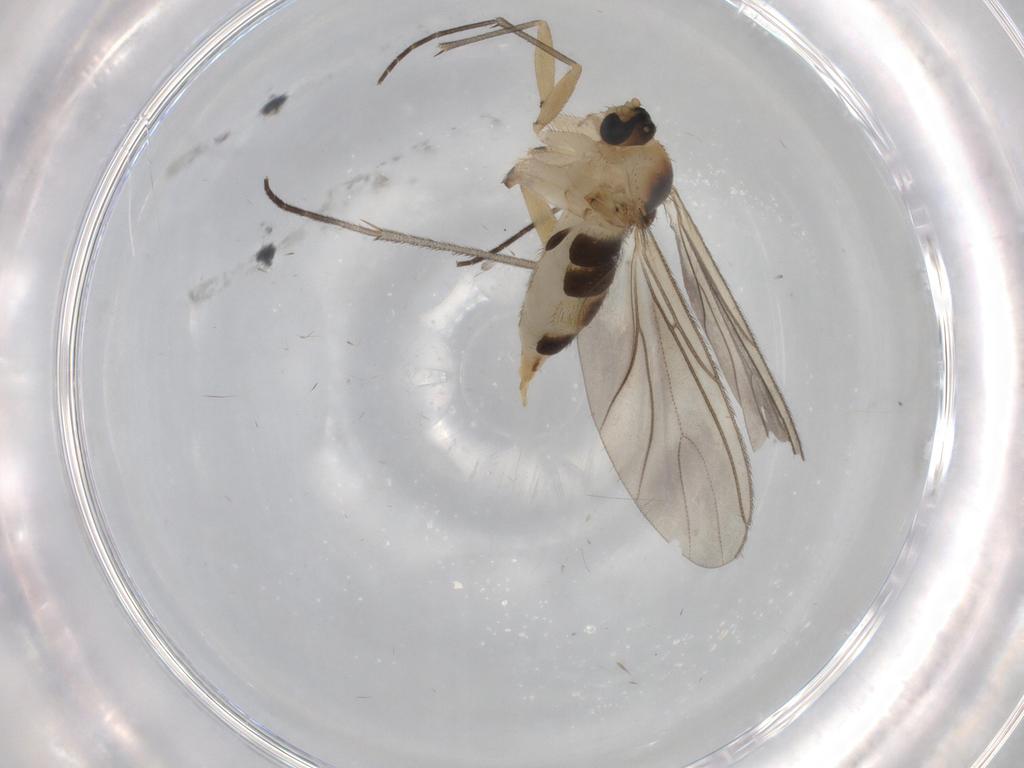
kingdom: Animalia
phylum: Arthropoda
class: Insecta
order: Diptera
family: Sciaridae
